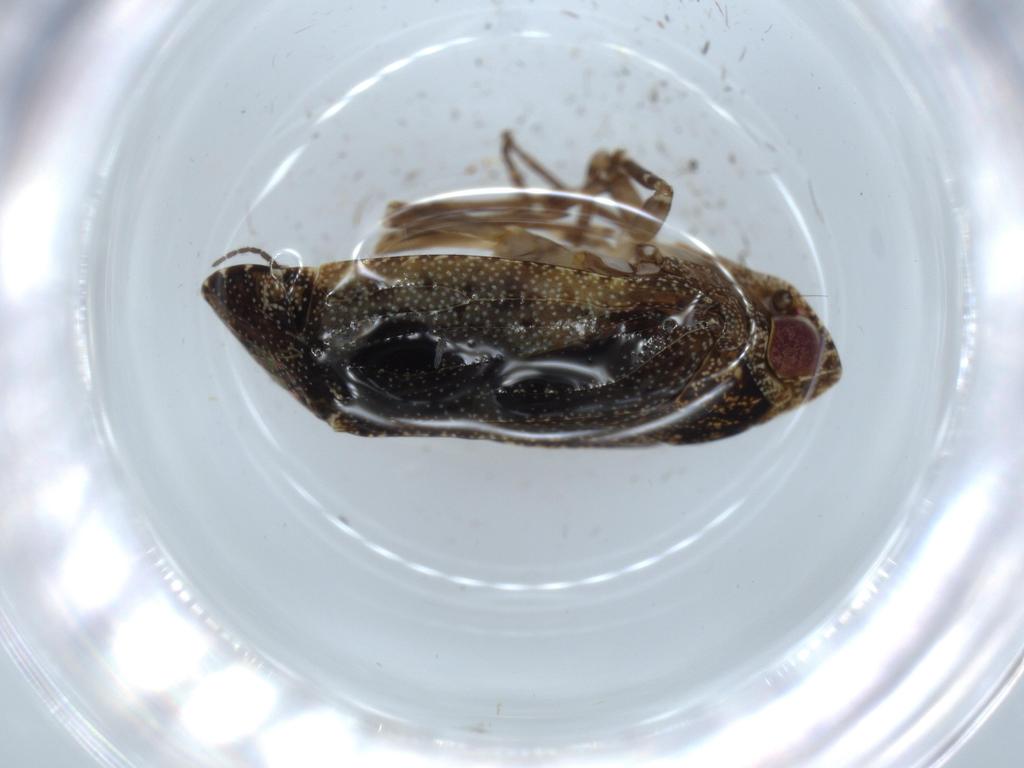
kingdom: Animalia
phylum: Arthropoda
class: Insecta
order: Hemiptera
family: Achilidae
